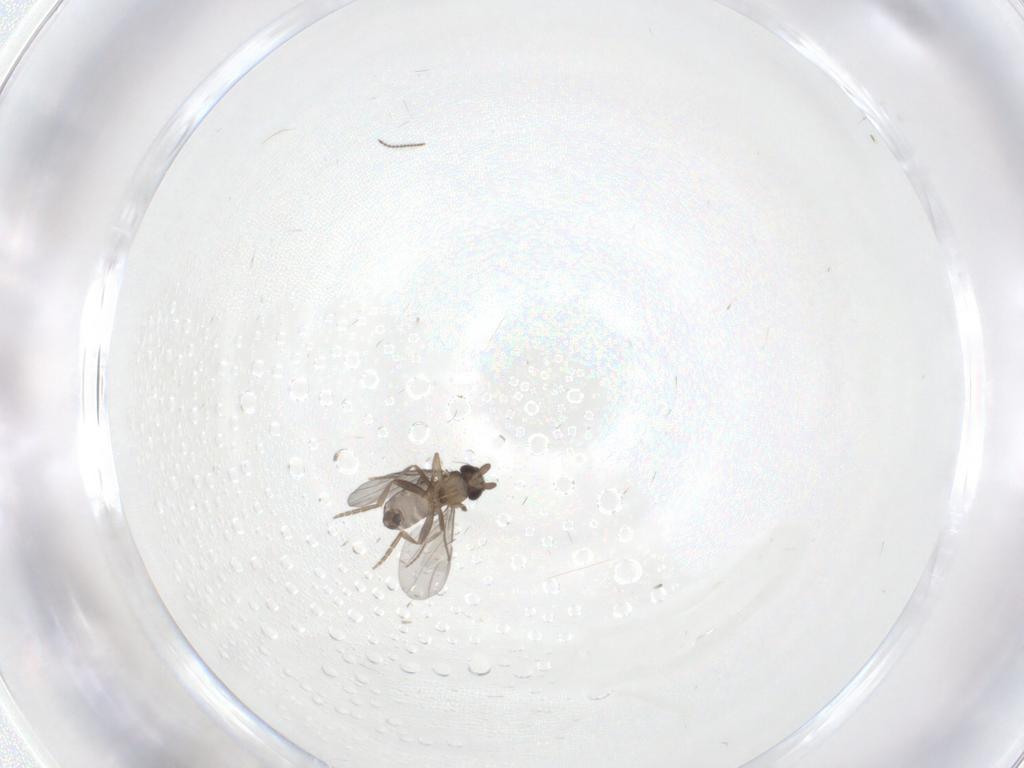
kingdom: Animalia
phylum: Arthropoda
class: Insecta
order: Diptera
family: Ceratopogonidae
